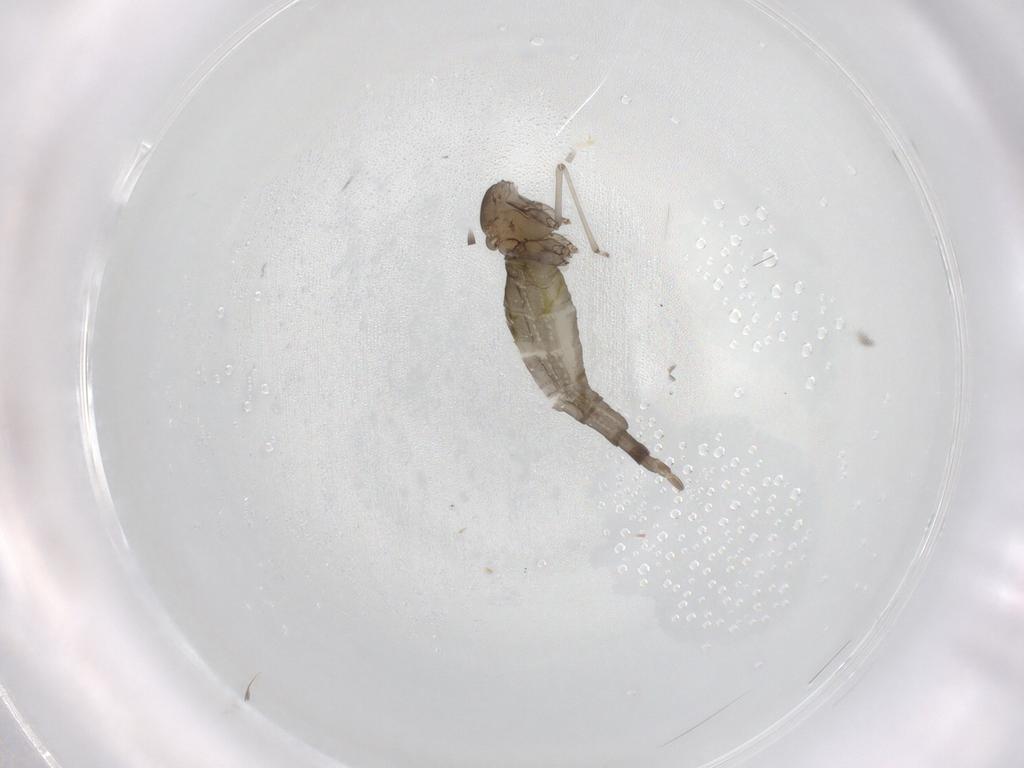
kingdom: Animalia
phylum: Arthropoda
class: Insecta
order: Diptera
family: Cecidomyiidae
